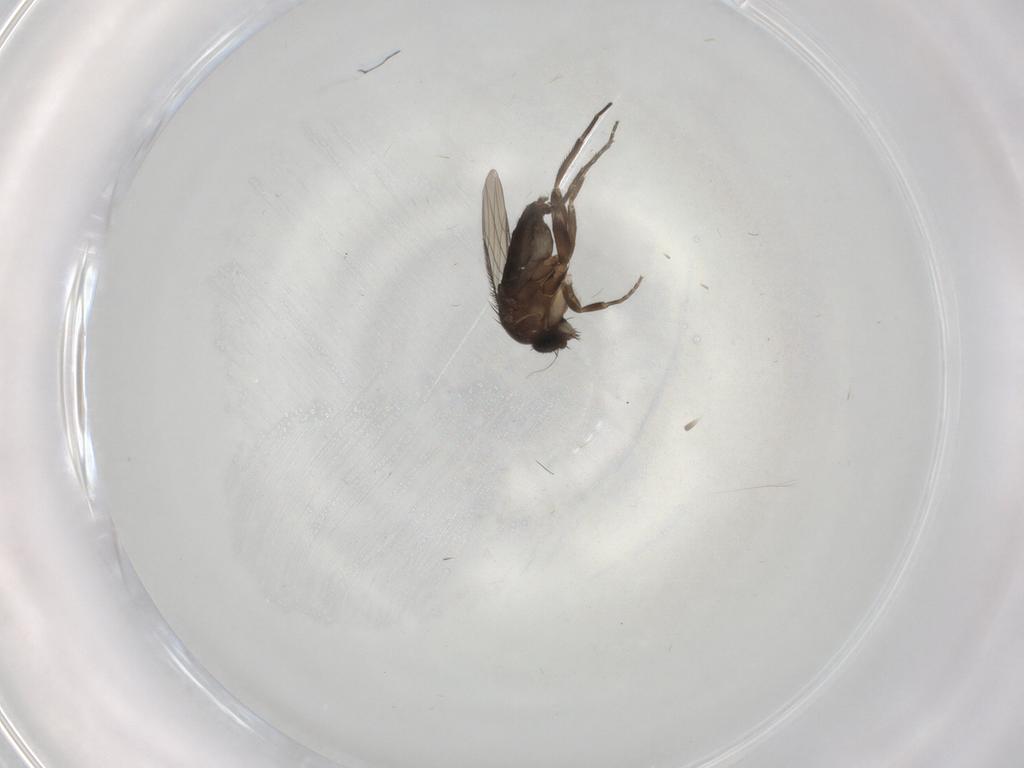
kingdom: Animalia
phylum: Arthropoda
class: Insecta
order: Diptera
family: Phoridae
